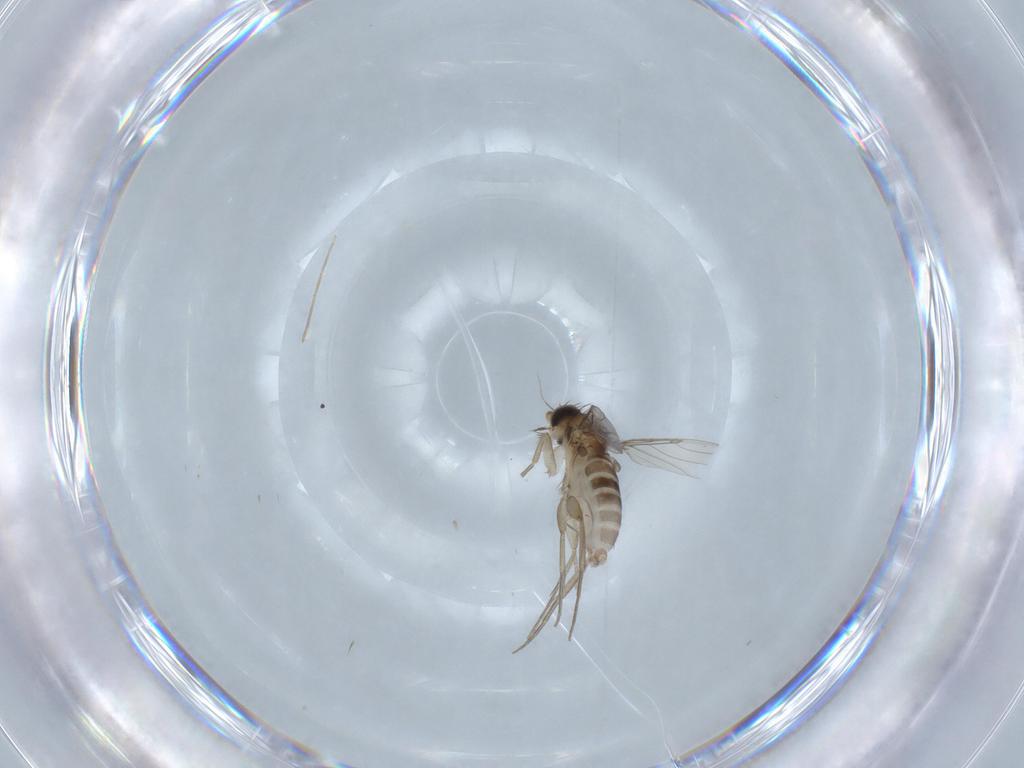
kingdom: Animalia
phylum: Arthropoda
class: Insecta
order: Diptera
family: Phoridae
